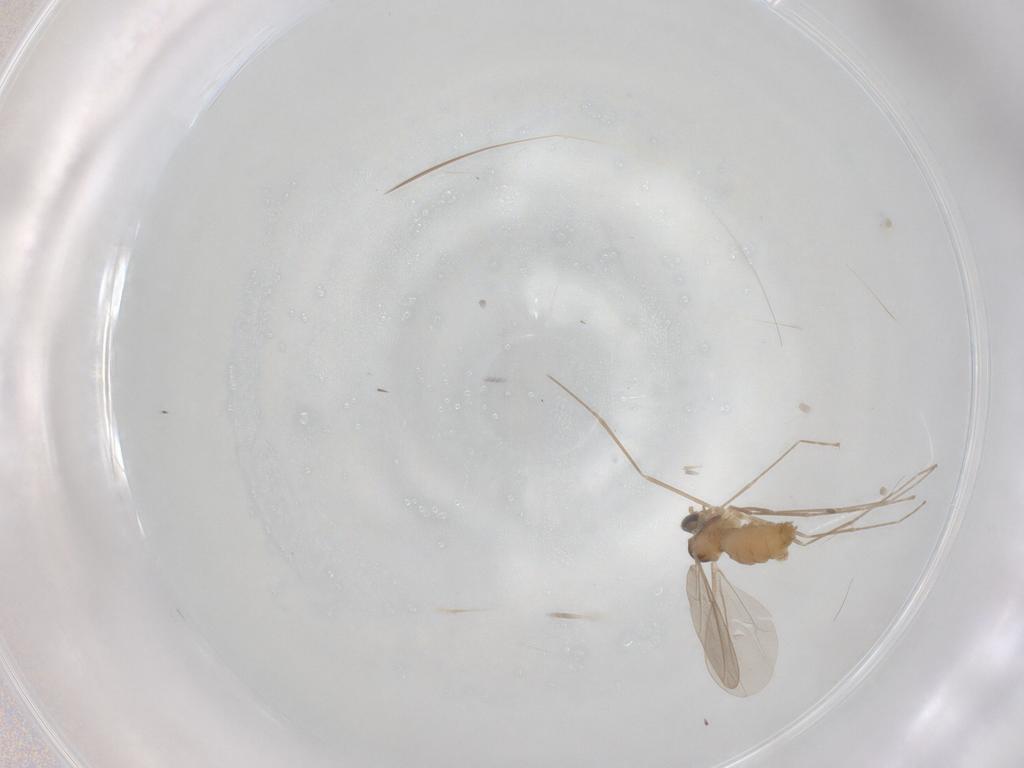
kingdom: Animalia
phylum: Arthropoda
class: Insecta
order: Diptera
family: Cecidomyiidae
